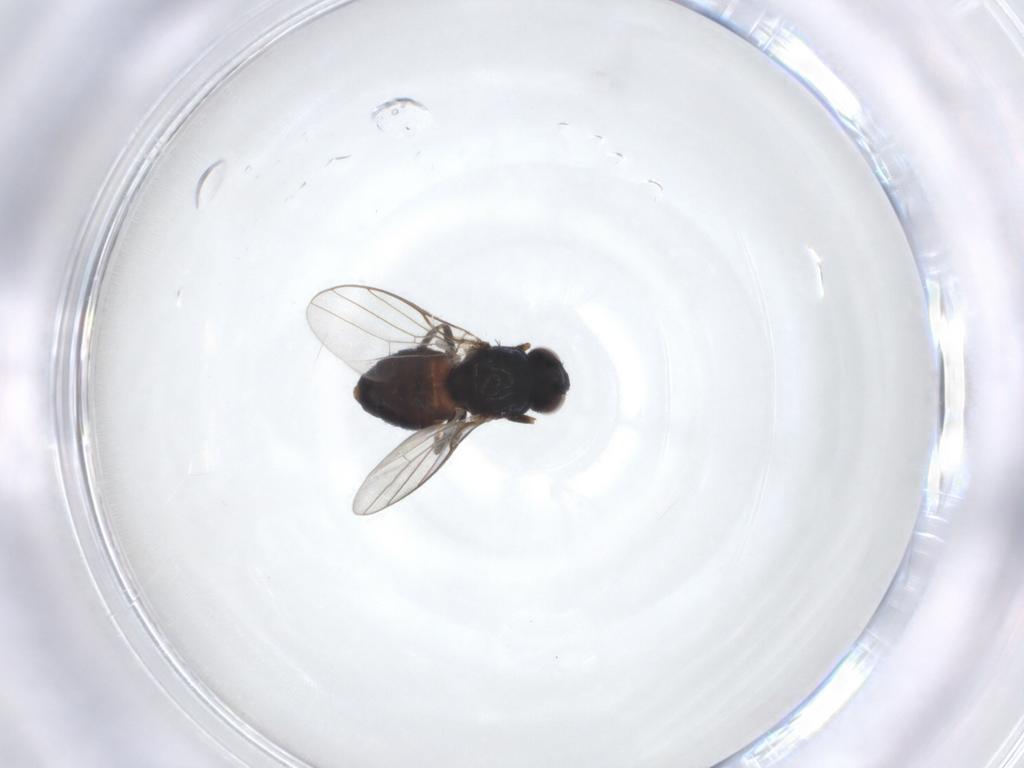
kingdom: Animalia
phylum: Arthropoda
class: Insecta
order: Diptera
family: Chloropidae
